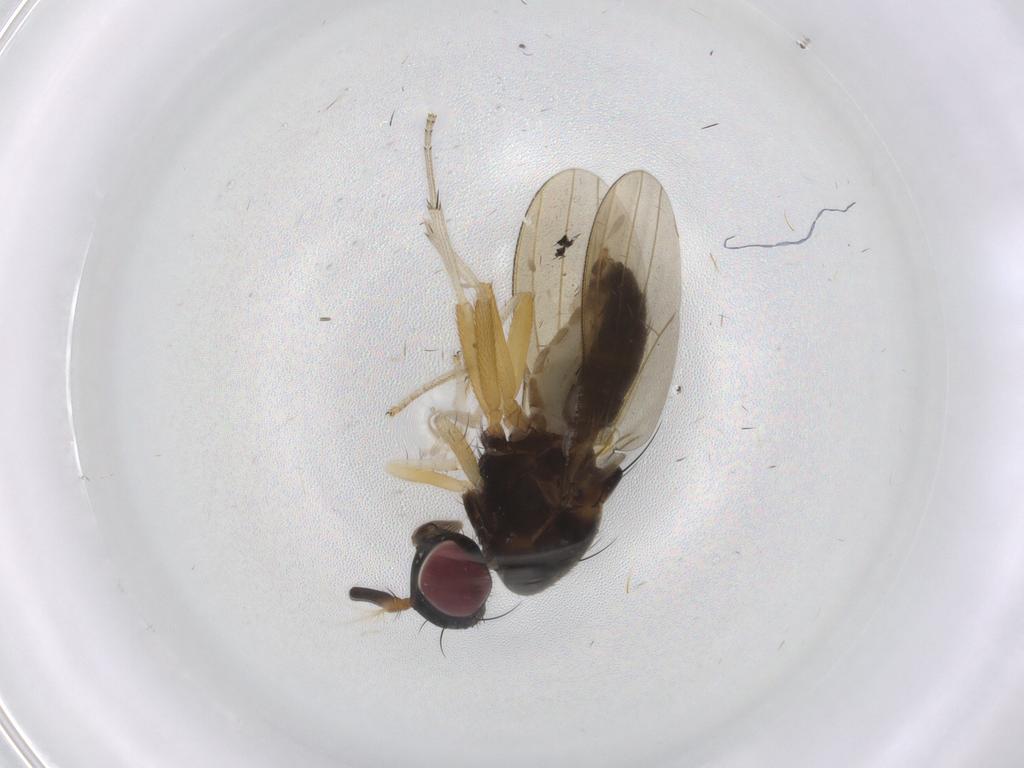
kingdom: Animalia
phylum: Arthropoda
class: Insecta
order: Diptera
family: Lauxaniidae
